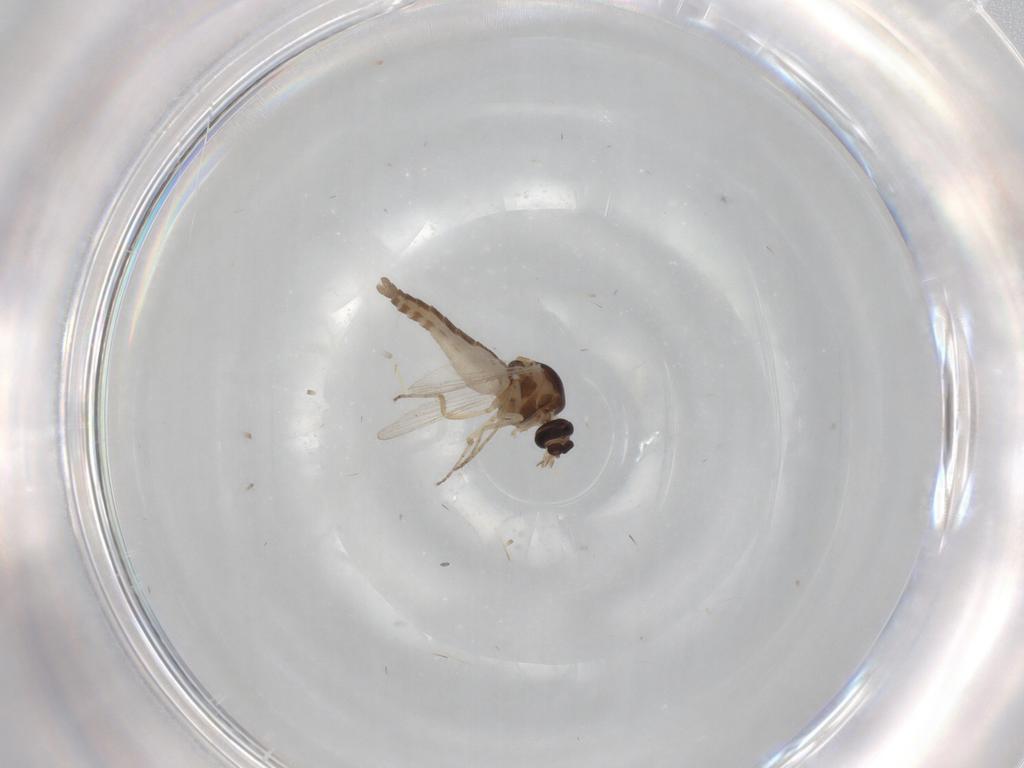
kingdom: Animalia
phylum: Arthropoda
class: Insecta
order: Diptera
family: Ceratopogonidae
